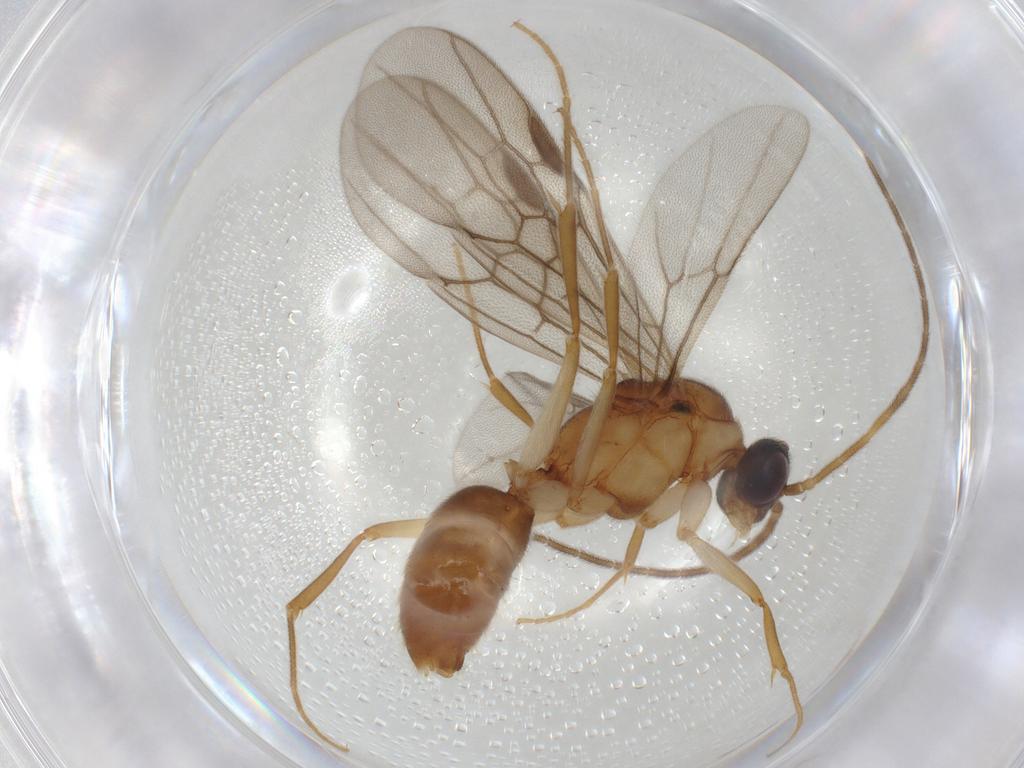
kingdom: Animalia
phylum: Arthropoda
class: Insecta
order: Hymenoptera
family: Formicidae
